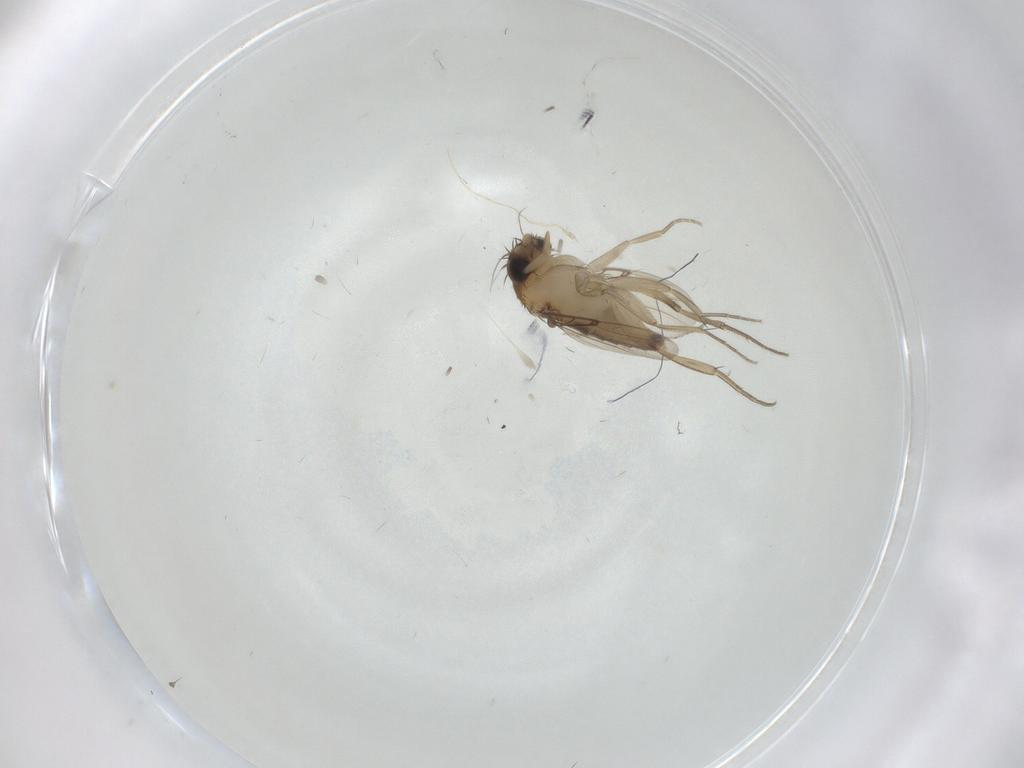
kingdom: Animalia
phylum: Arthropoda
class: Insecta
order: Diptera
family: Phoridae
